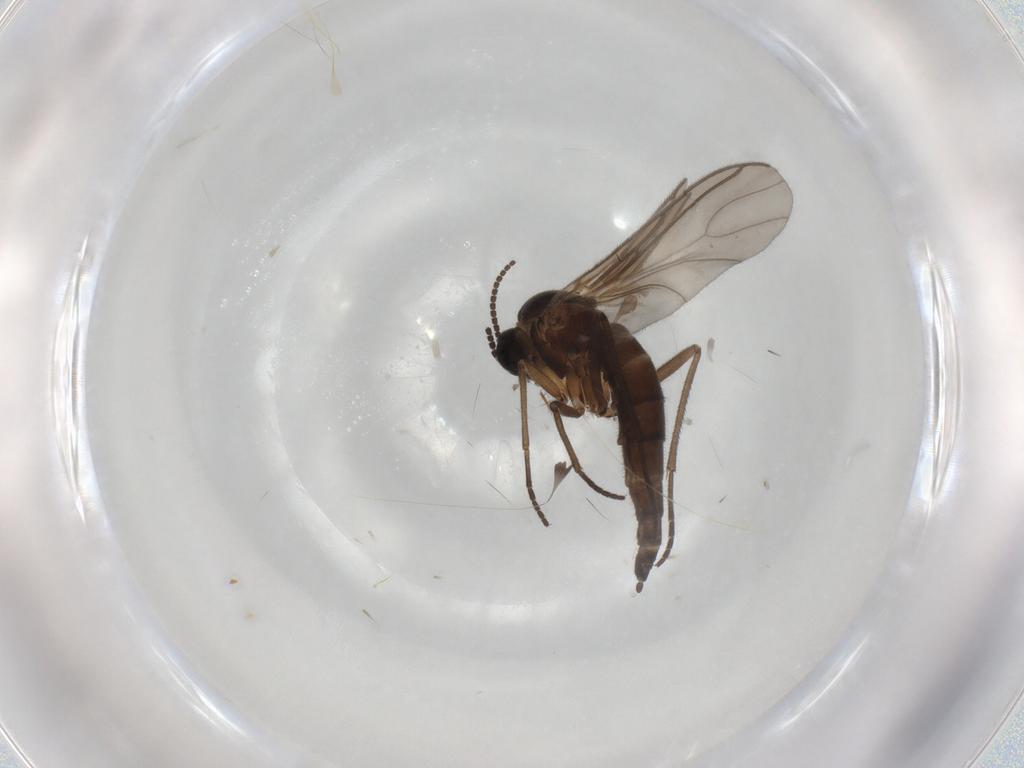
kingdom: Animalia
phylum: Arthropoda
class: Insecta
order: Diptera
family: Sciaridae
